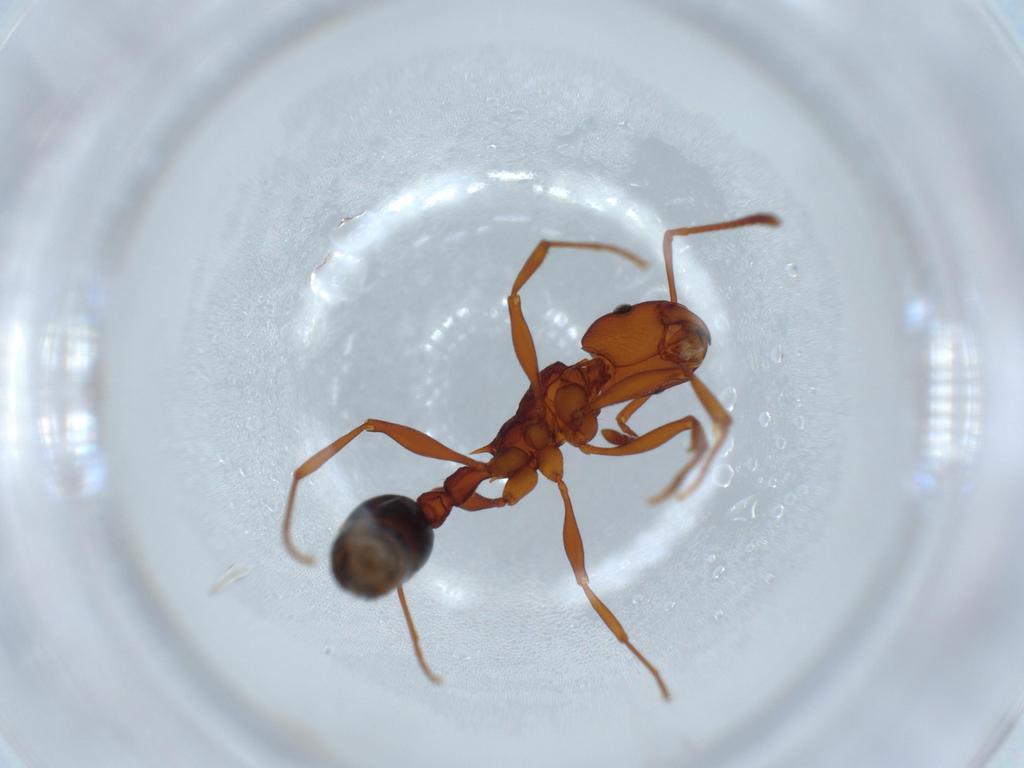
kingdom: Animalia
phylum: Arthropoda
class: Insecta
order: Hymenoptera
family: Formicidae
